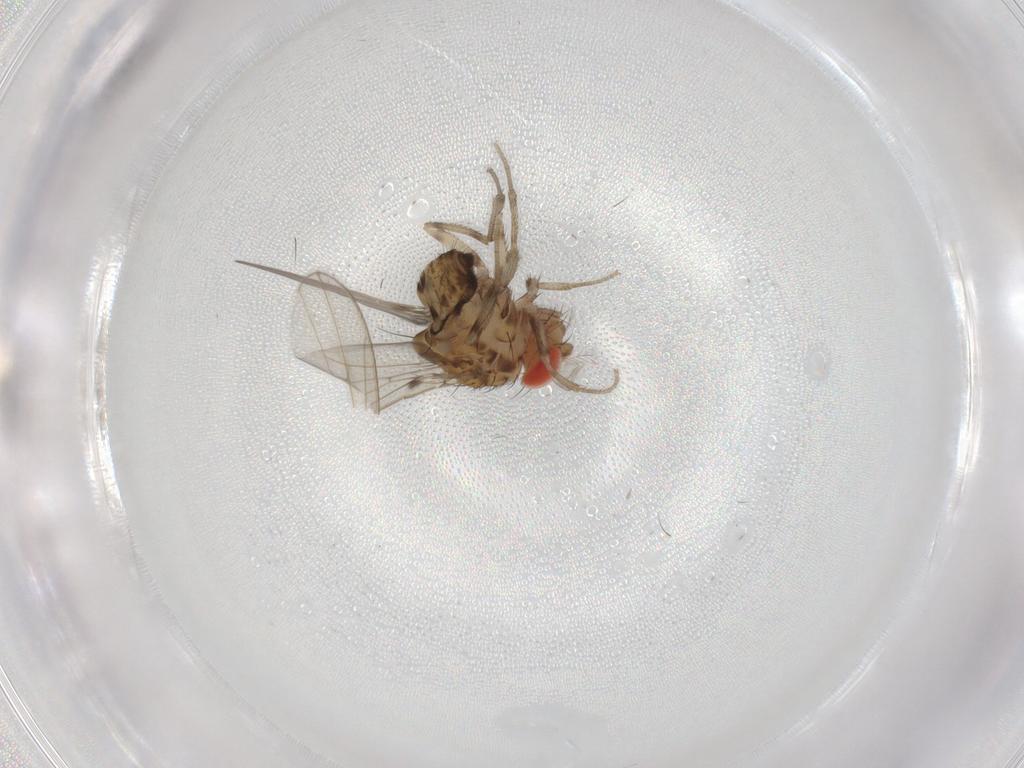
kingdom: Animalia
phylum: Arthropoda
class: Insecta
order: Diptera
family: Drosophilidae
